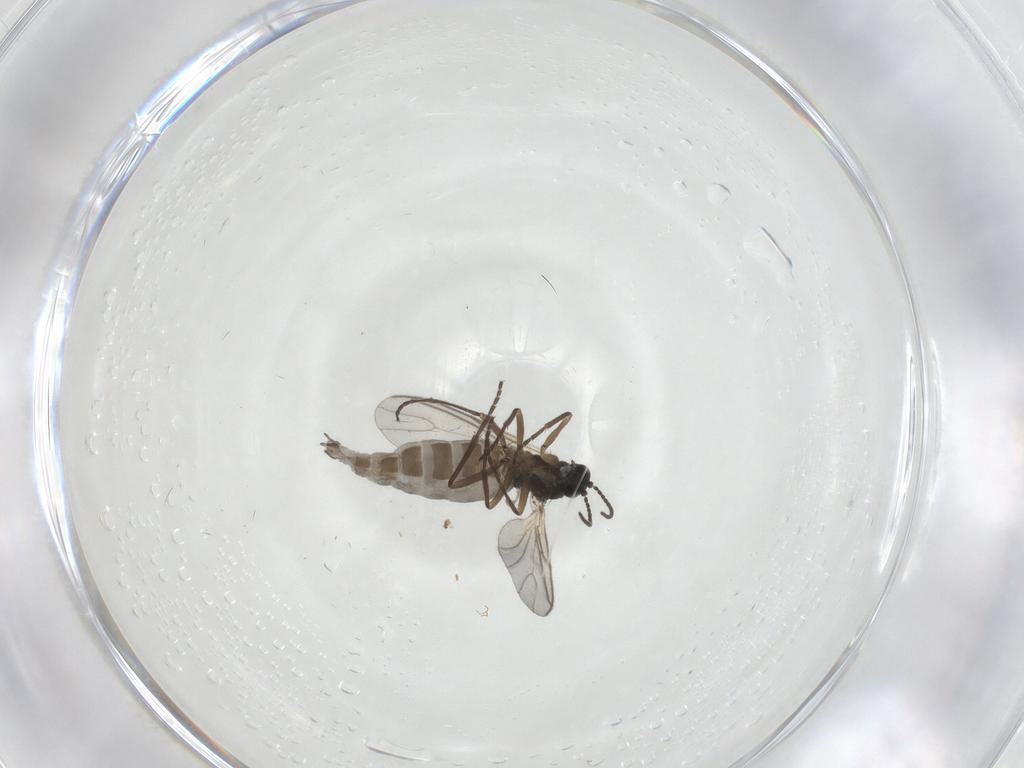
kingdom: Animalia
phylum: Arthropoda
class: Insecta
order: Diptera
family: Sciaridae
